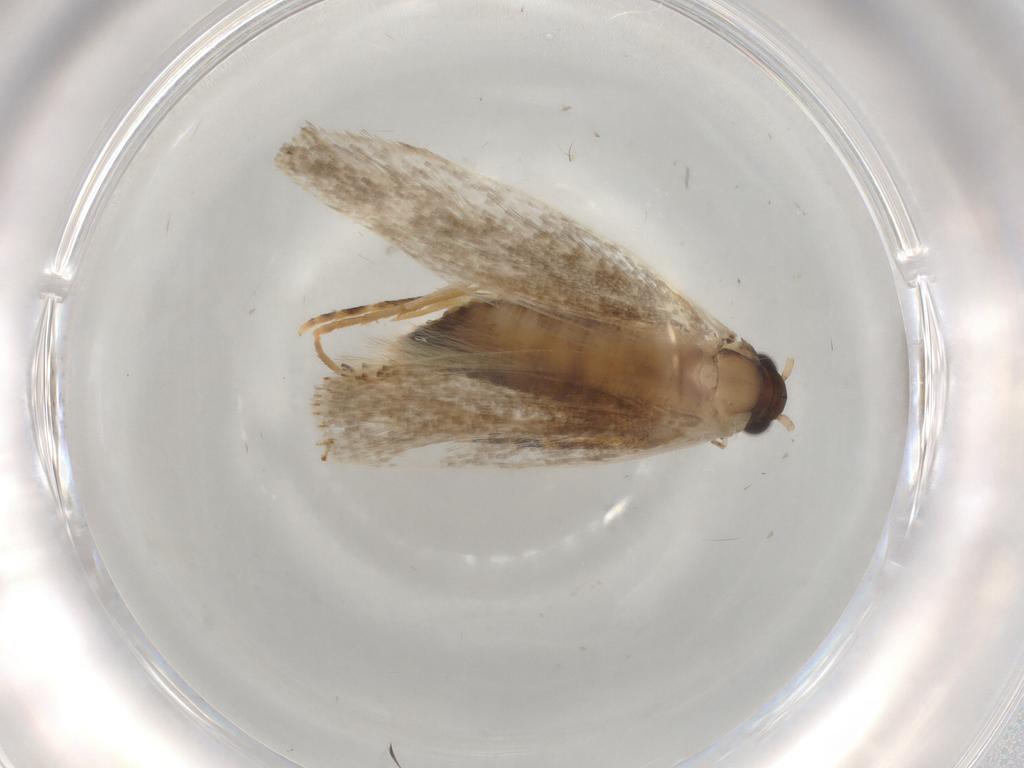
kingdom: Animalia
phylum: Arthropoda
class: Insecta
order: Lepidoptera
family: Tineidae
